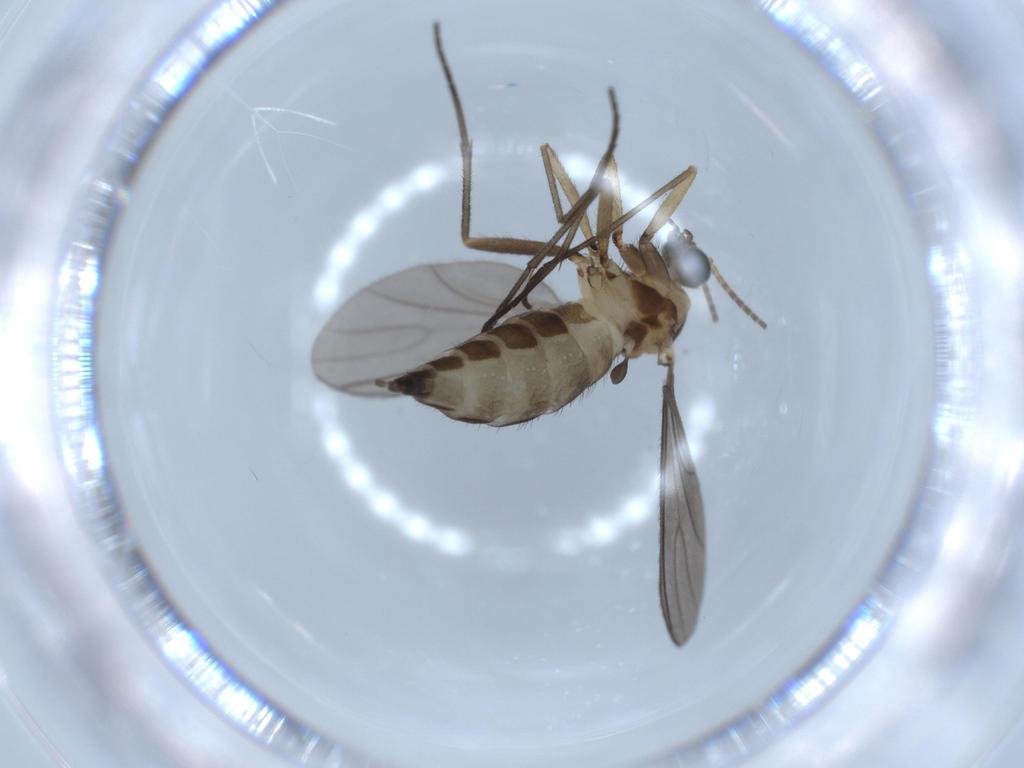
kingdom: Animalia
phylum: Arthropoda
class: Insecta
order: Diptera
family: Sciaridae
